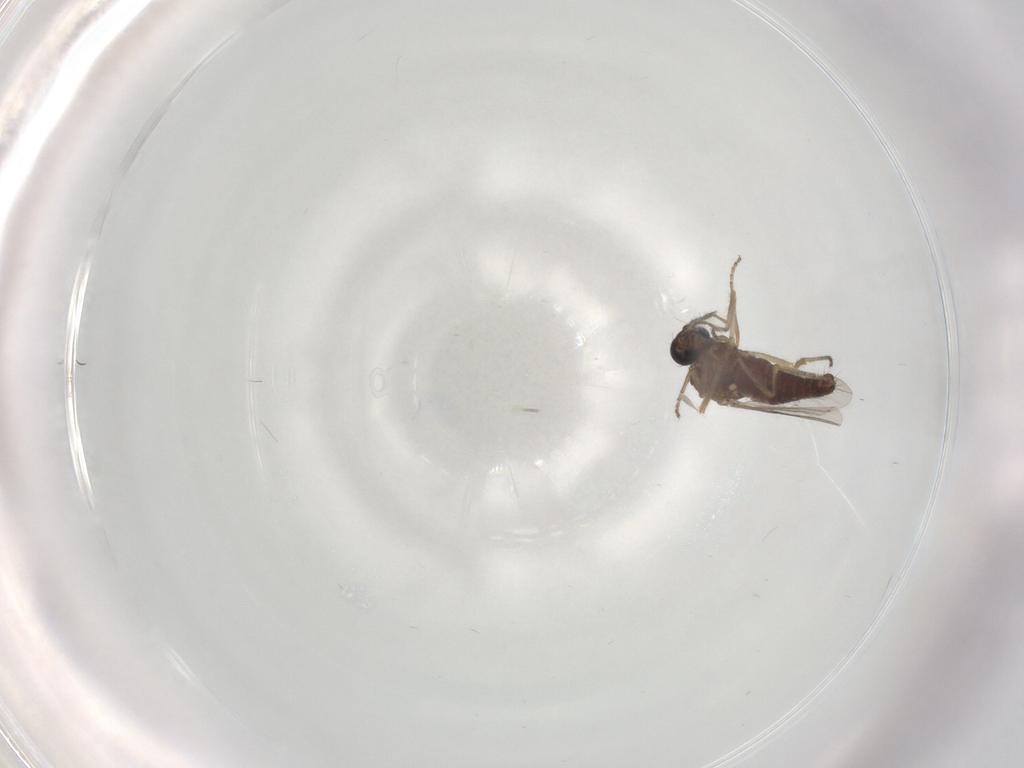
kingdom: Animalia
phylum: Arthropoda
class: Insecta
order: Diptera
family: Ceratopogonidae
